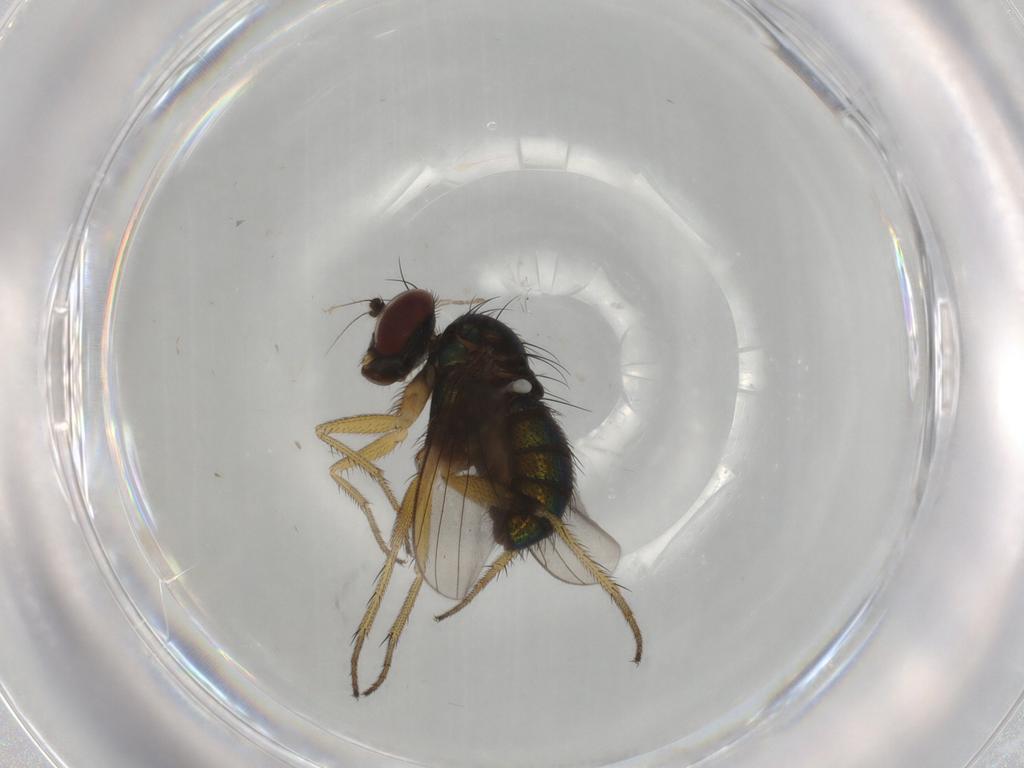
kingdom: Animalia
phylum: Arthropoda
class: Insecta
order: Diptera
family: Dolichopodidae
